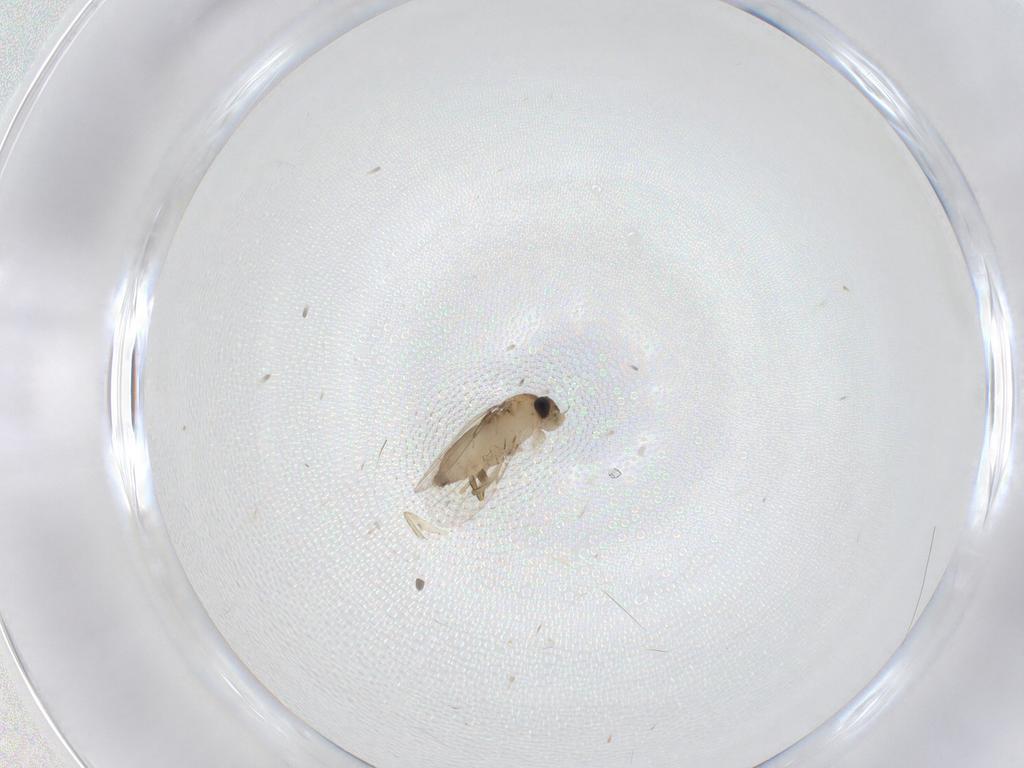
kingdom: Animalia
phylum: Arthropoda
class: Insecta
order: Diptera
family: Phoridae
